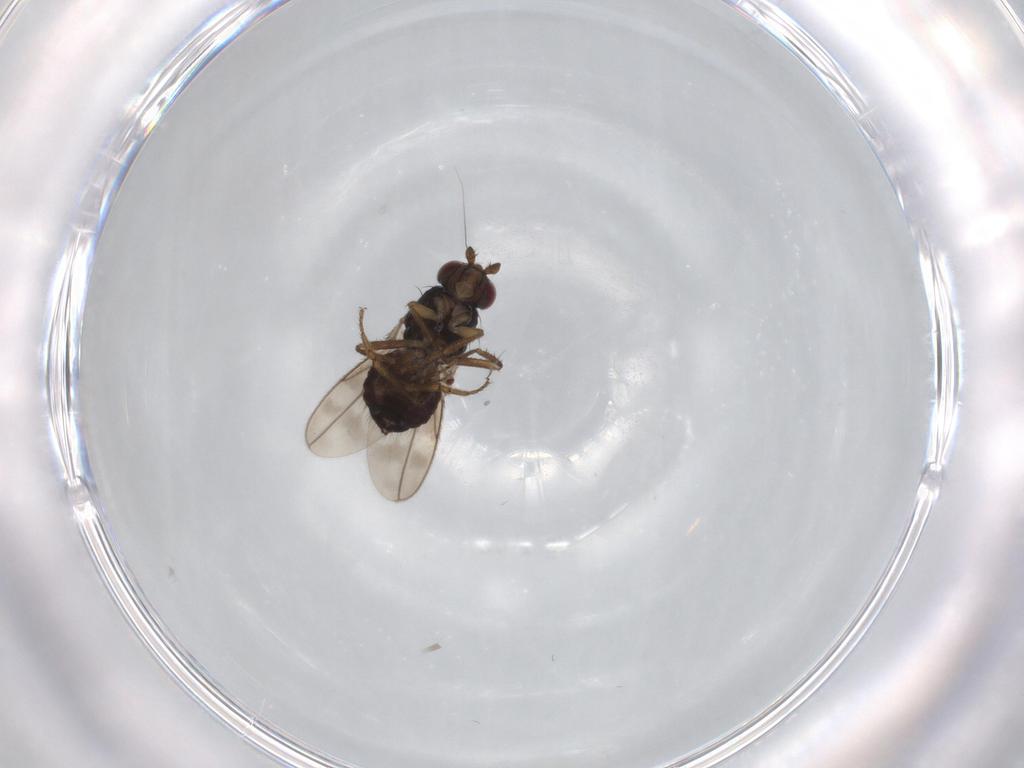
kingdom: Animalia
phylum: Arthropoda
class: Insecta
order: Diptera
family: Sphaeroceridae
